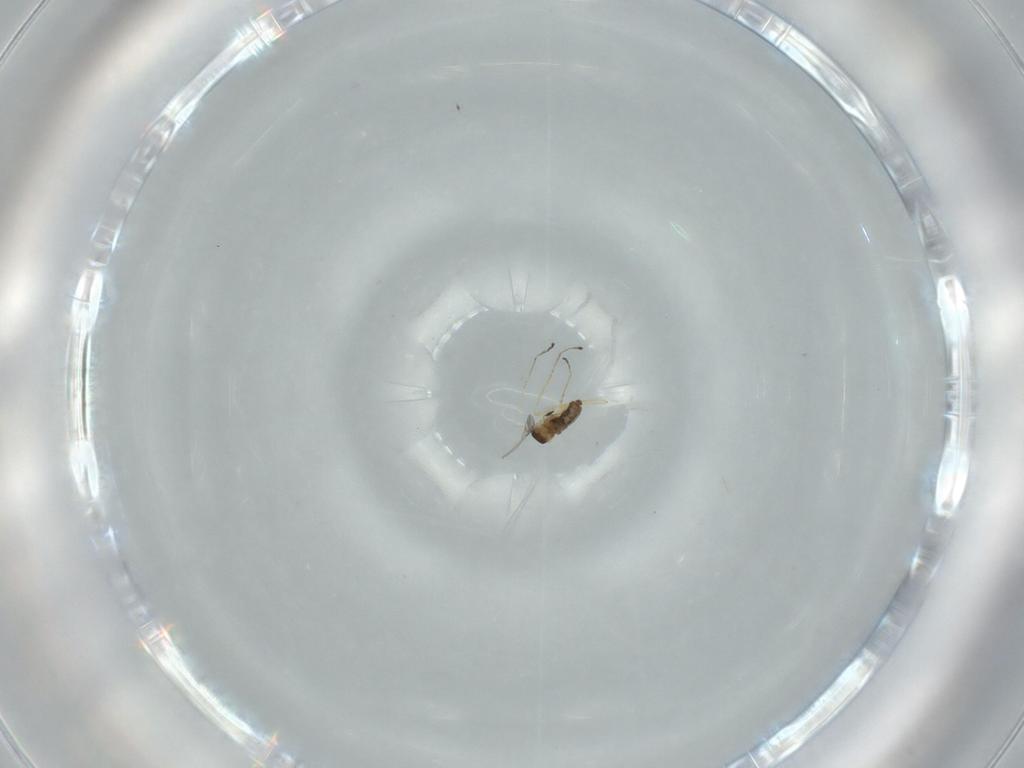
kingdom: Animalia
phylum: Arthropoda
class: Insecta
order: Diptera
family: Cecidomyiidae
